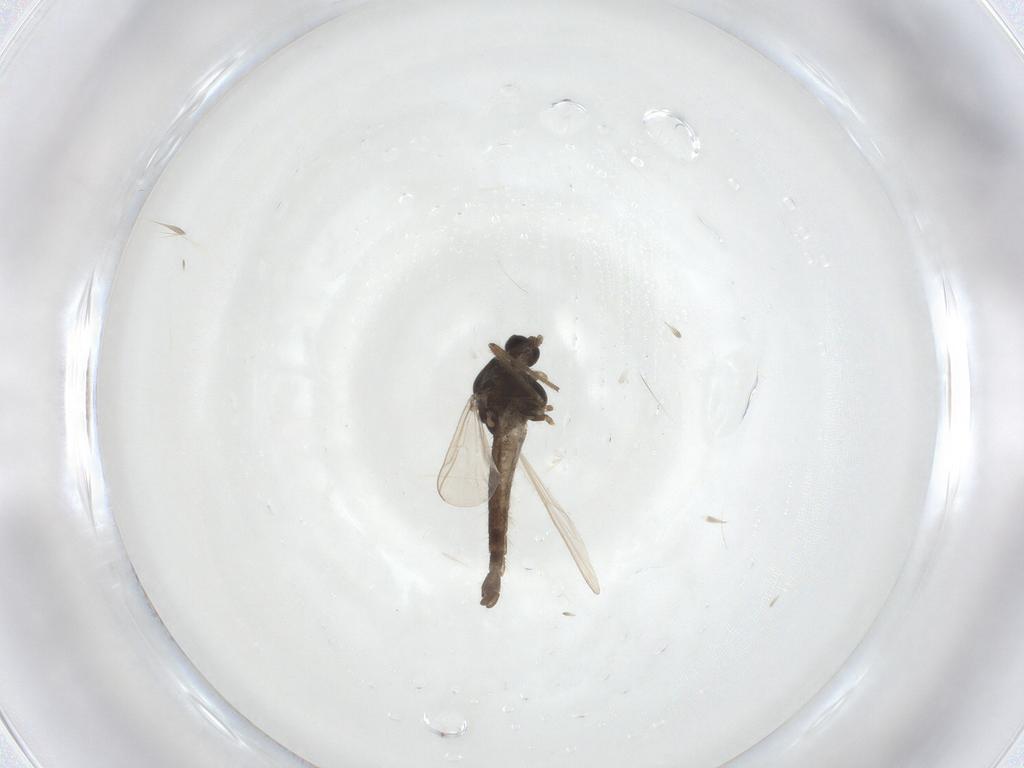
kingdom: Animalia
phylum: Arthropoda
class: Insecta
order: Diptera
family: Chironomidae
